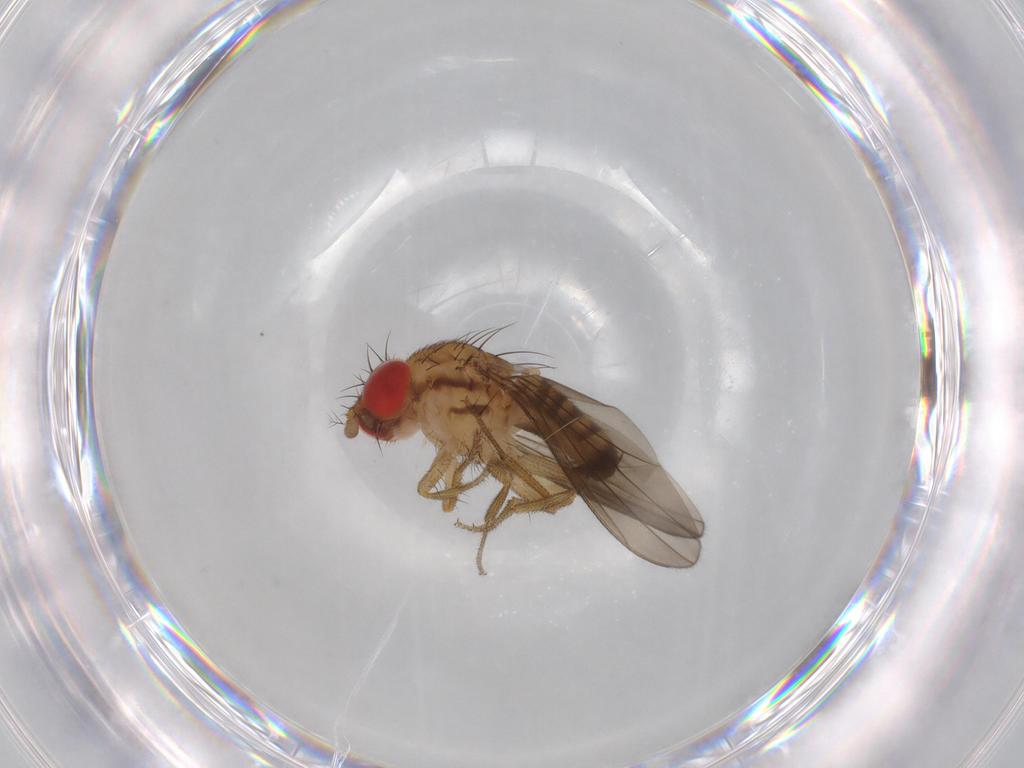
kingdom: Animalia
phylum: Arthropoda
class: Insecta
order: Diptera
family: Drosophilidae
